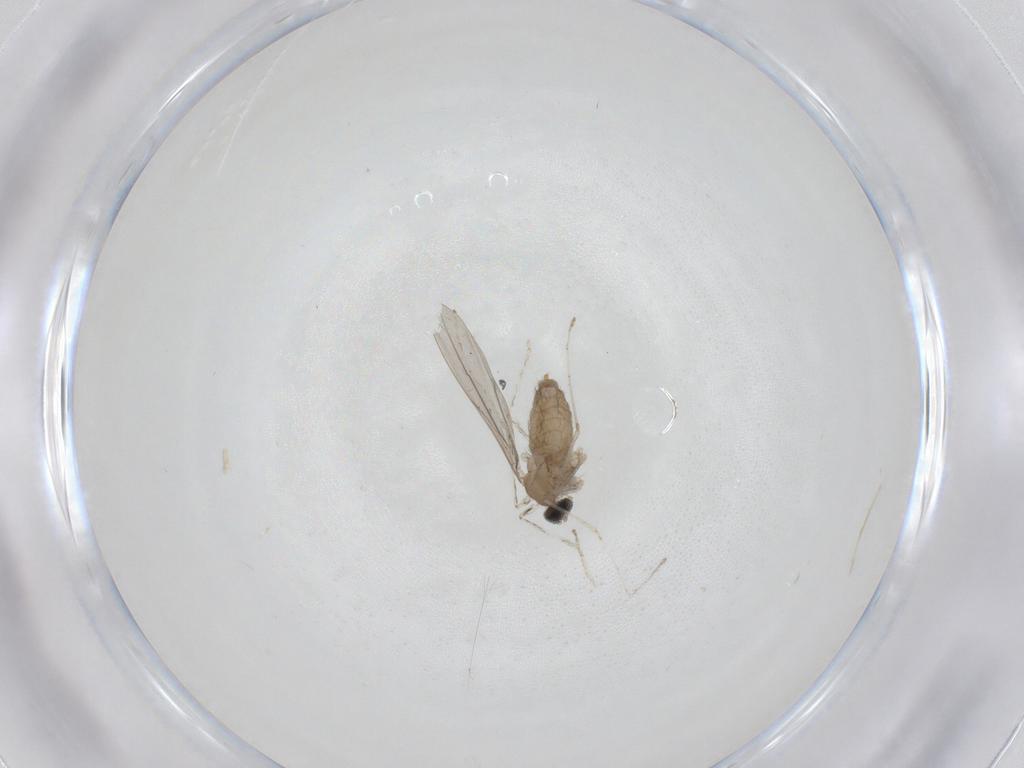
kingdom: Animalia
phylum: Arthropoda
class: Insecta
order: Diptera
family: Cecidomyiidae
